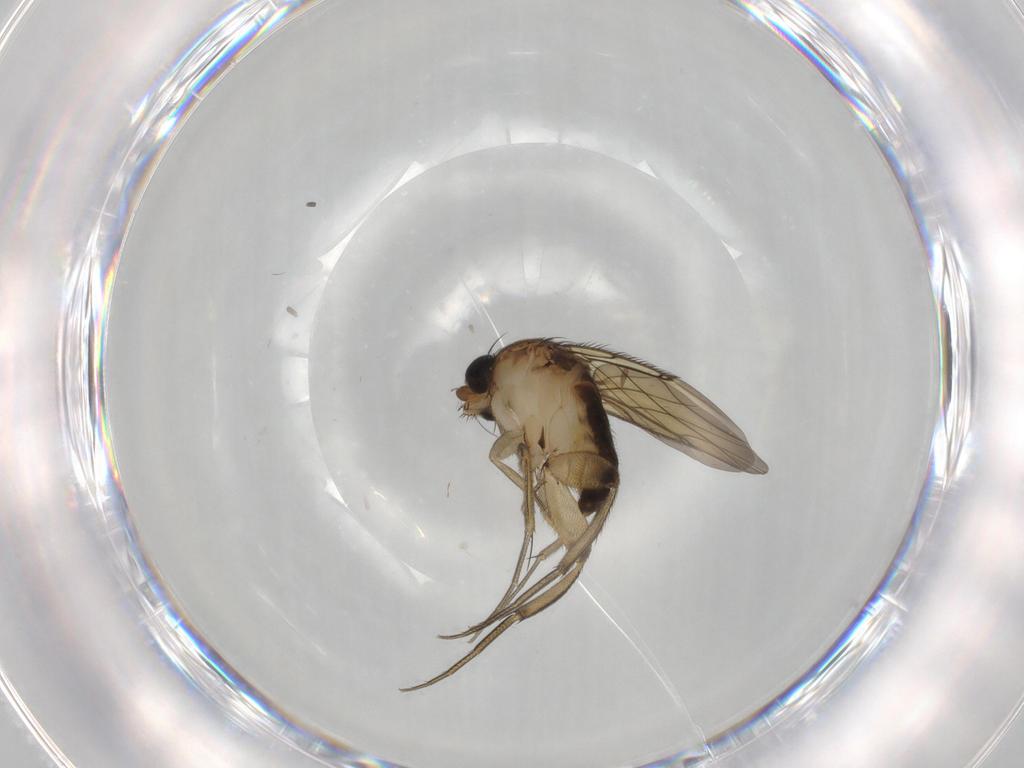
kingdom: Animalia
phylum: Arthropoda
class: Insecta
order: Diptera
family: Phoridae
